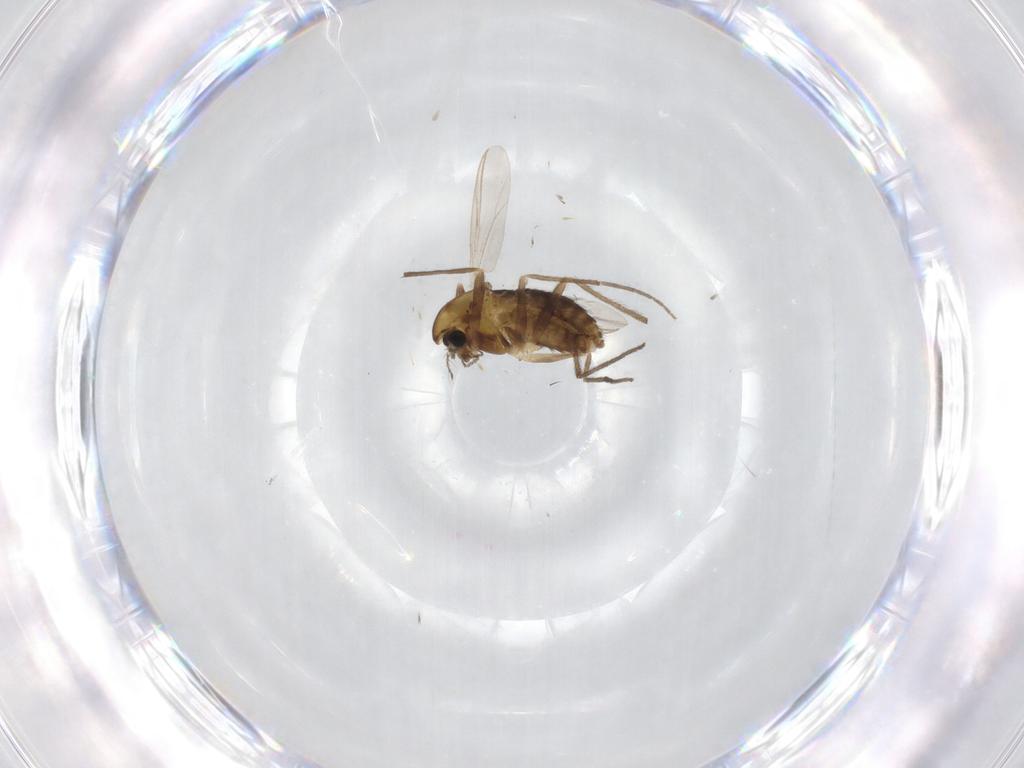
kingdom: Animalia
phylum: Arthropoda
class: Insecta
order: Diptera
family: Chironomidae
